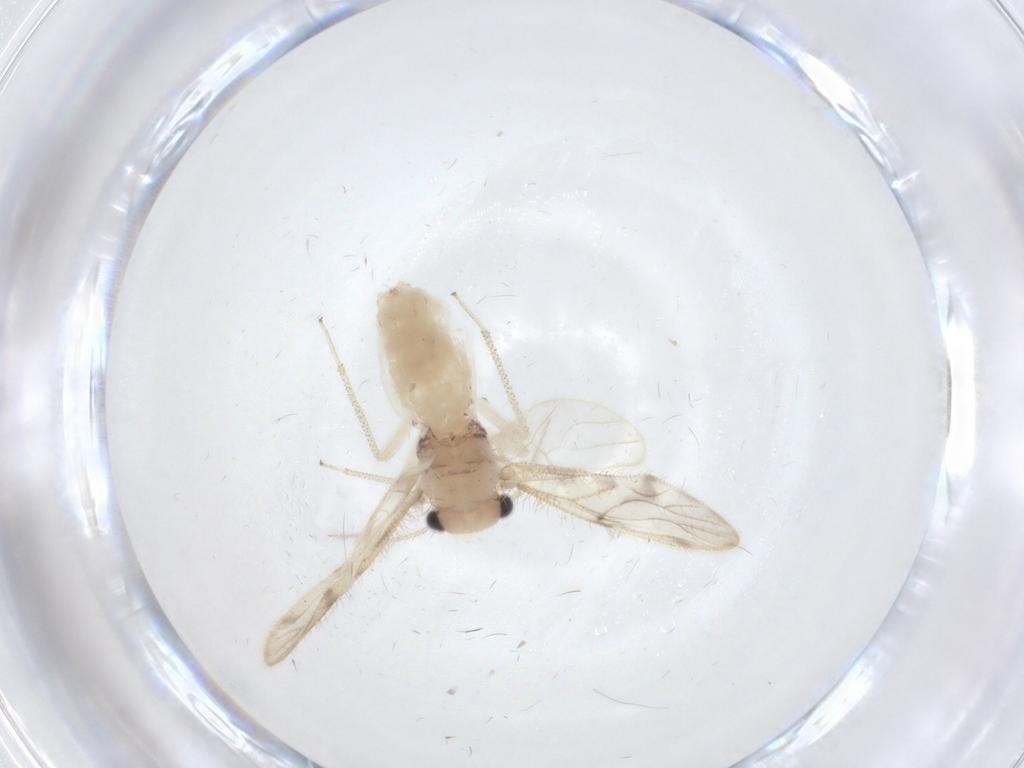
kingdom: Animalia
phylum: Arthropoda
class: Insecta
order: Psocodea
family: Pseudocaeciliidae
